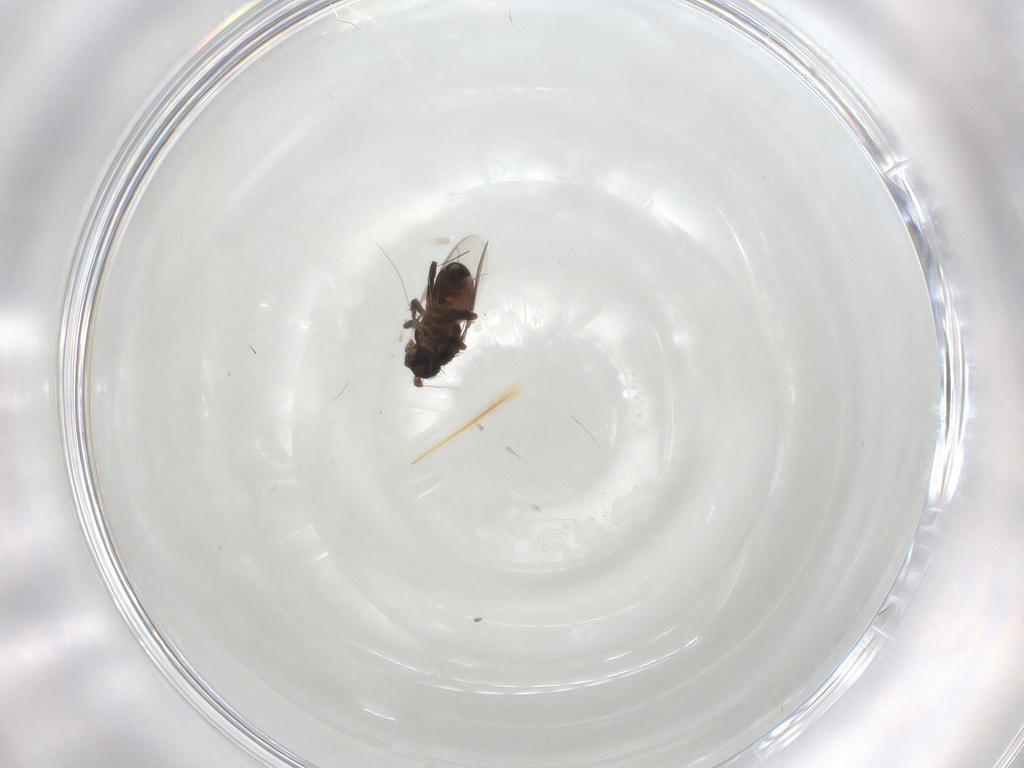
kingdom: Animalia
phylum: Arthropoda
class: Insecta
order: Diptera
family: Sphaeroceridae
